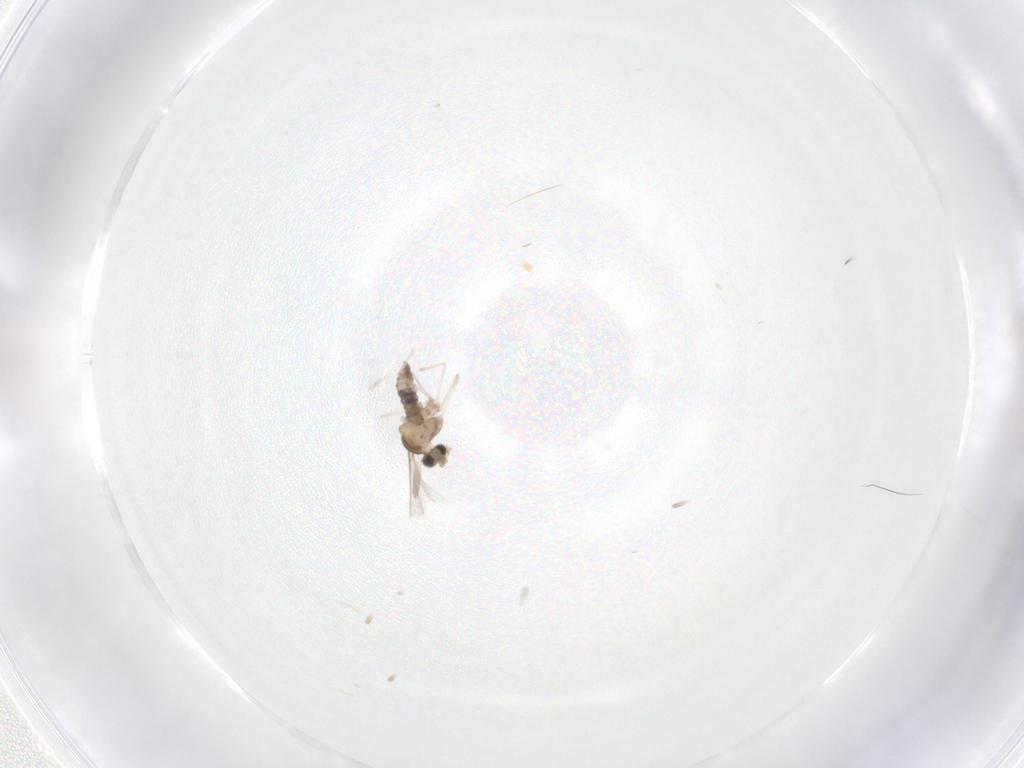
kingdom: Animalia
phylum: Arthropoda
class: Insecta
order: Diptera
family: Cecidomyiidae
